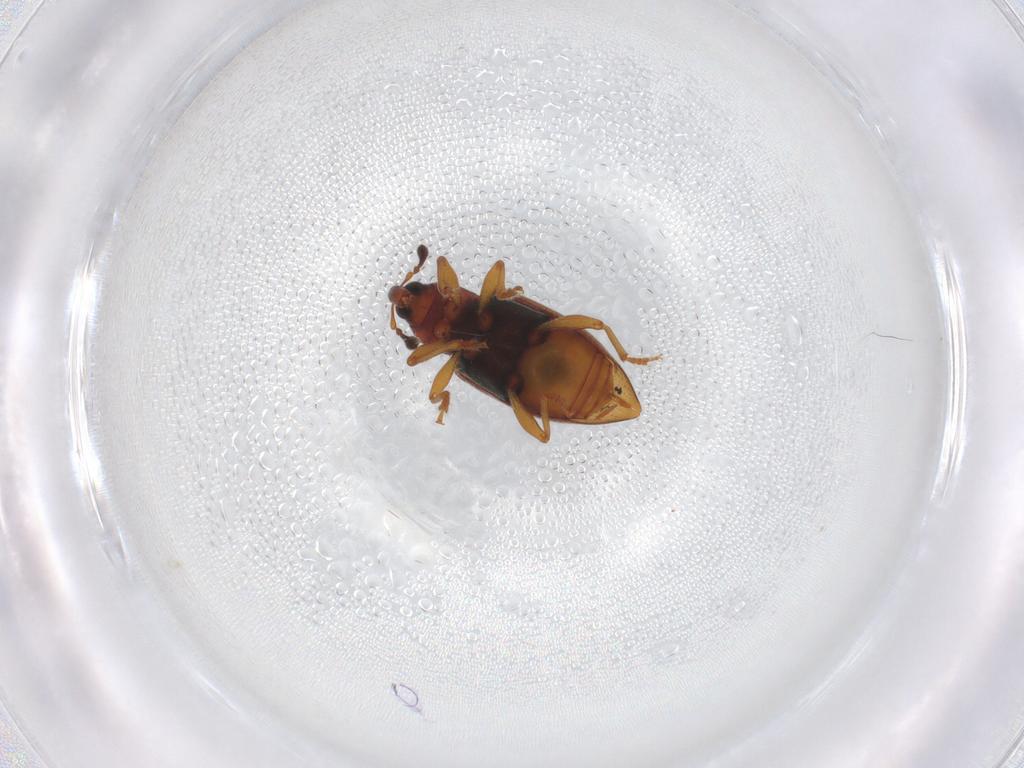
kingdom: Animalia
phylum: Arthropoda
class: Insecta
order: Coleoptera
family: Curculionidae
